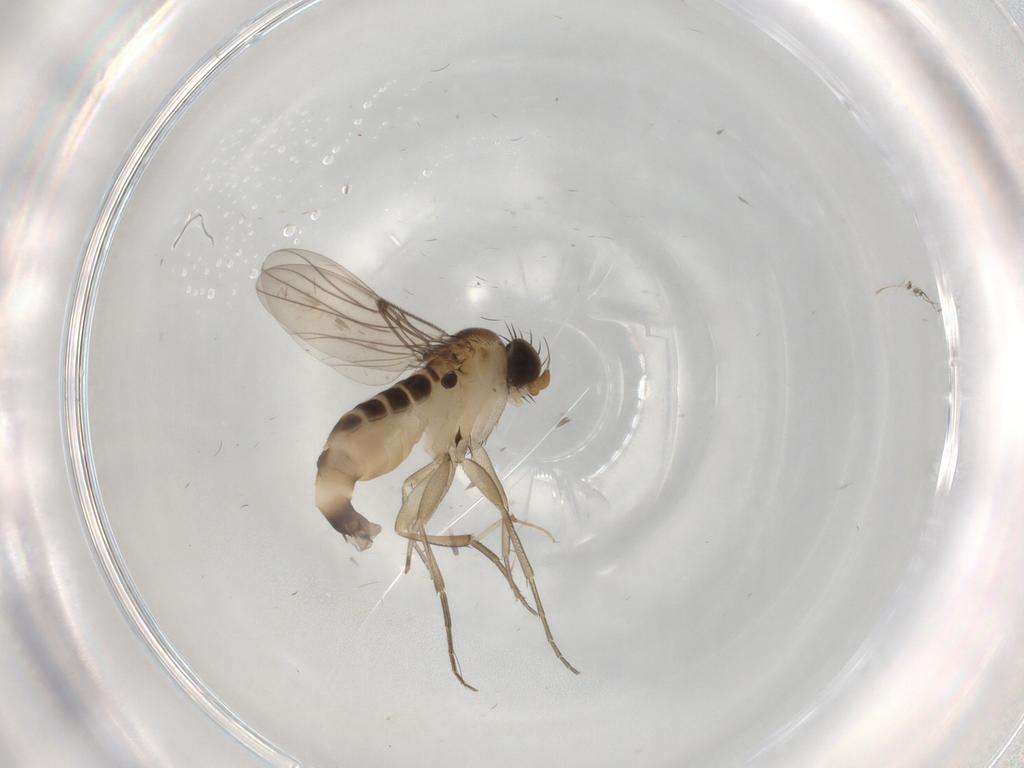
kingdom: Animalia
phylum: Arthropoda
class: Insecta
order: Diptera
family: Phoridae
